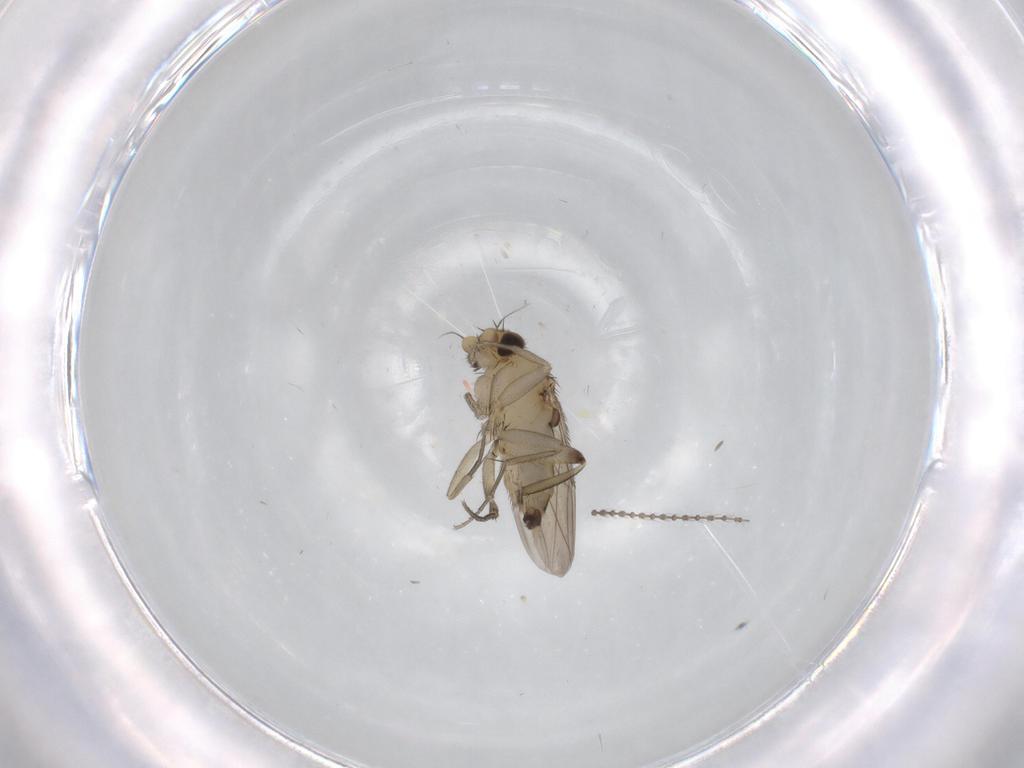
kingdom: Animalia
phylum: Arthropoda
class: Insecta
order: Diptera
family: Phoridae
